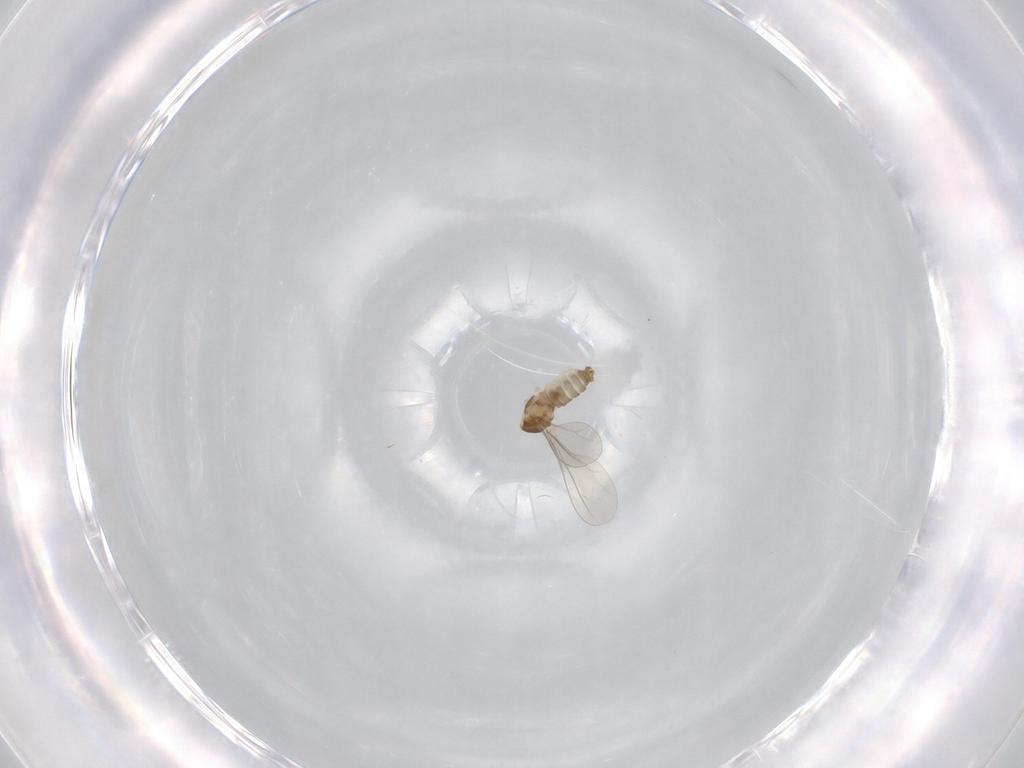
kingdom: Animalia
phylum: Arthropoda
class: Insecta
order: Diptera
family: Cecidomyiidae
